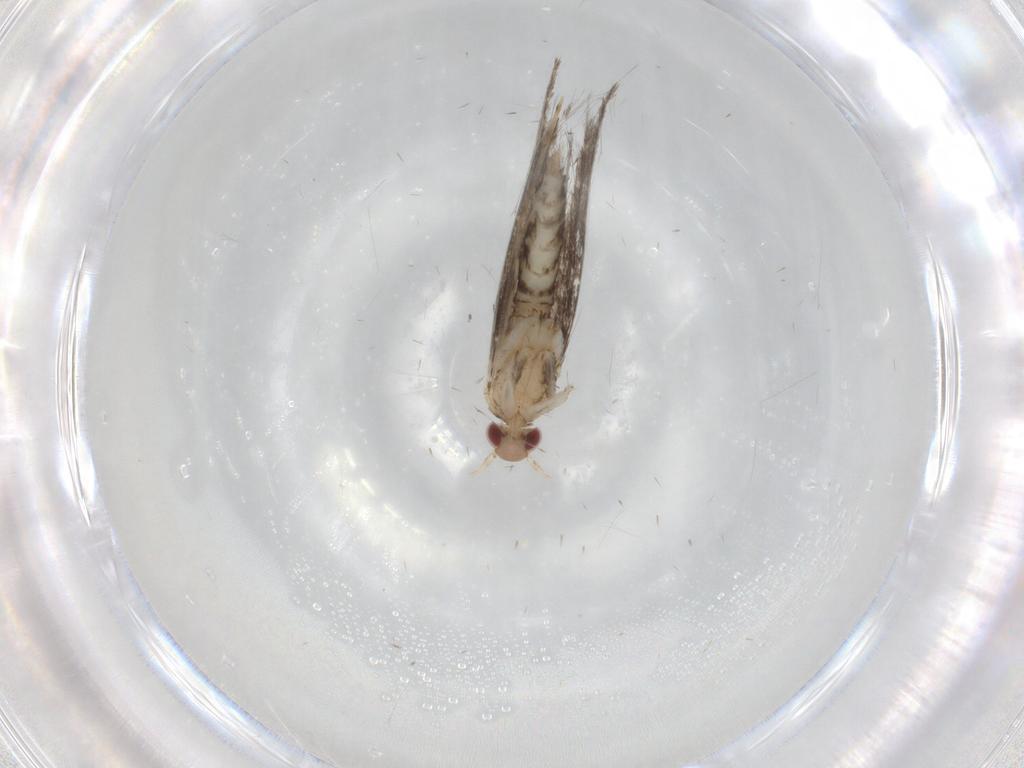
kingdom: Animalia
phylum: Arthropoda
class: Insecta
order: Lepidoptera
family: Gracillariidae
